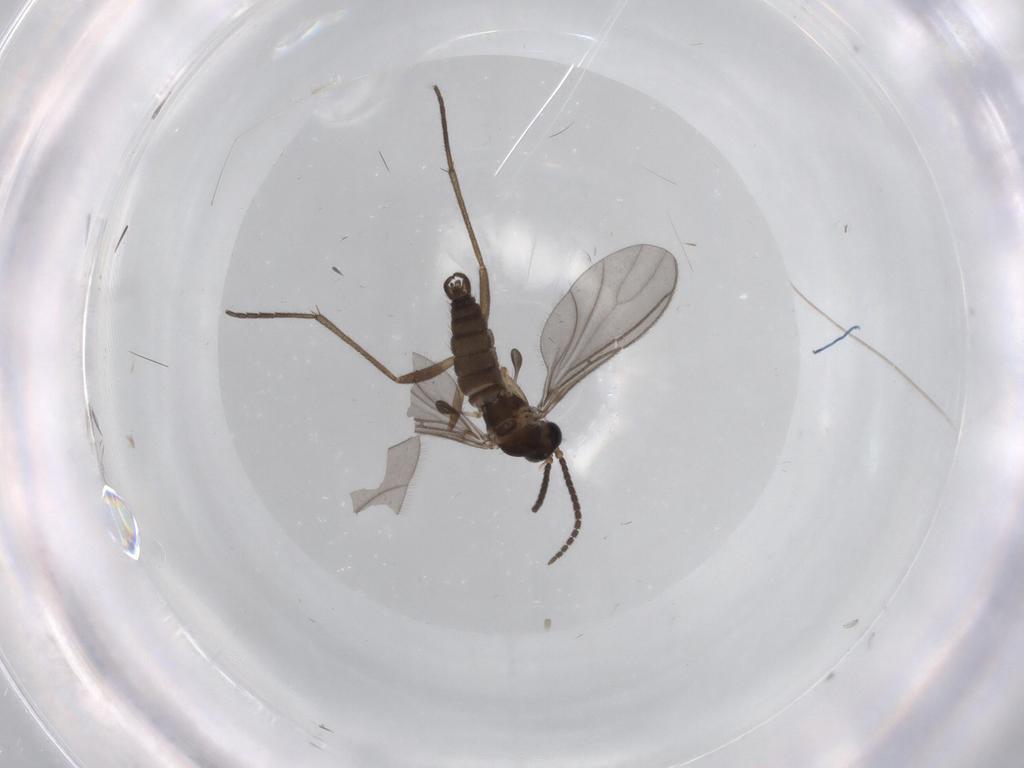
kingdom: Animalia
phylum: Arthropoda
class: Insecta
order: Diptera
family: Sciaridae
